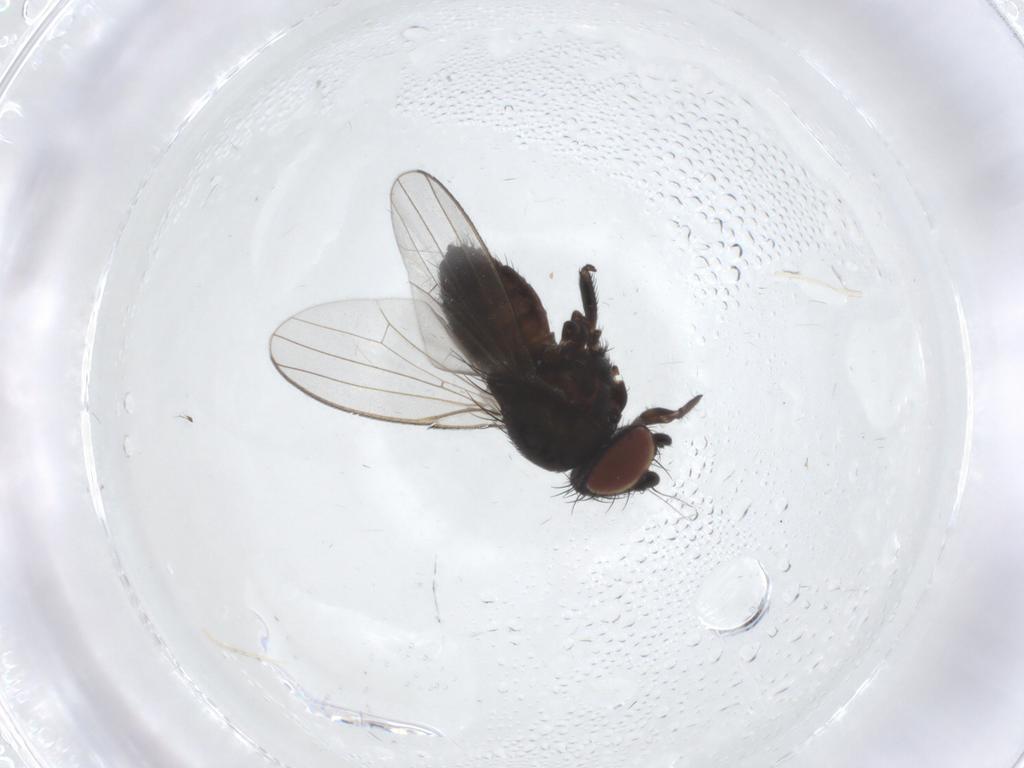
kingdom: Animalia
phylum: Arthropoda
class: Insecta
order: Diptera
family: Milichiidae
